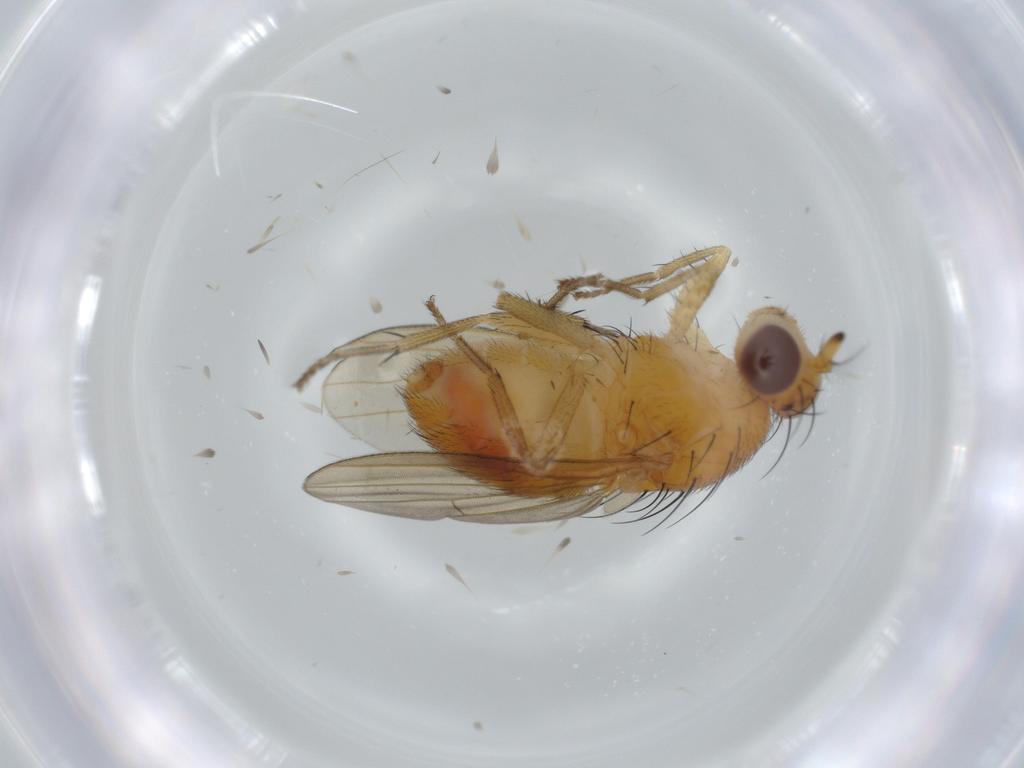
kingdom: Animalia
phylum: Arthropoda
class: Insecta
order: Diptera
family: Lauxaniidae
